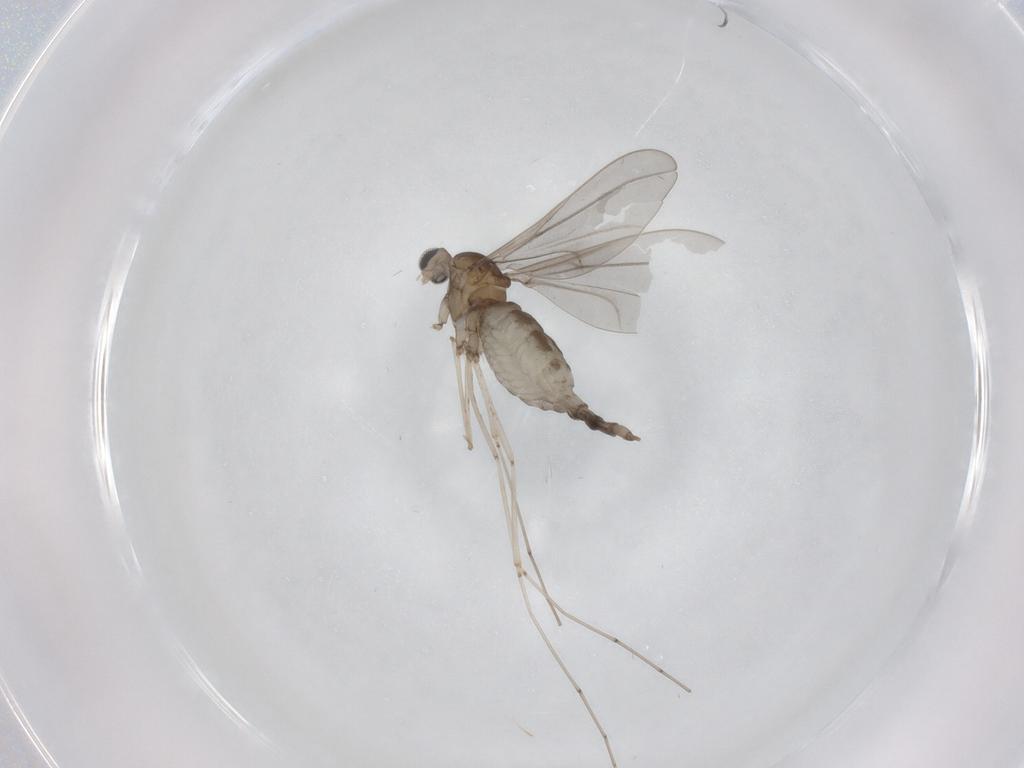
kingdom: Animalia
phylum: Arthropoda
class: Insecta
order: Diptera
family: Cecidomyiidae
